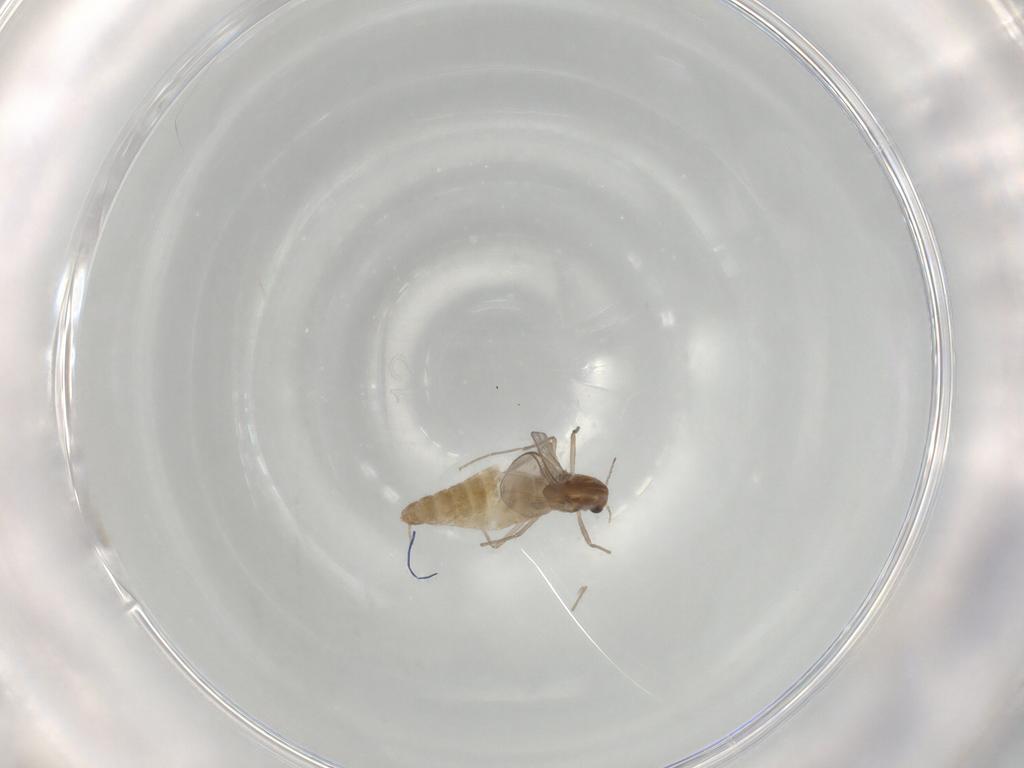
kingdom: Animalia
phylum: Arthropoda
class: Insecta
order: Diptera
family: Chironomidae
